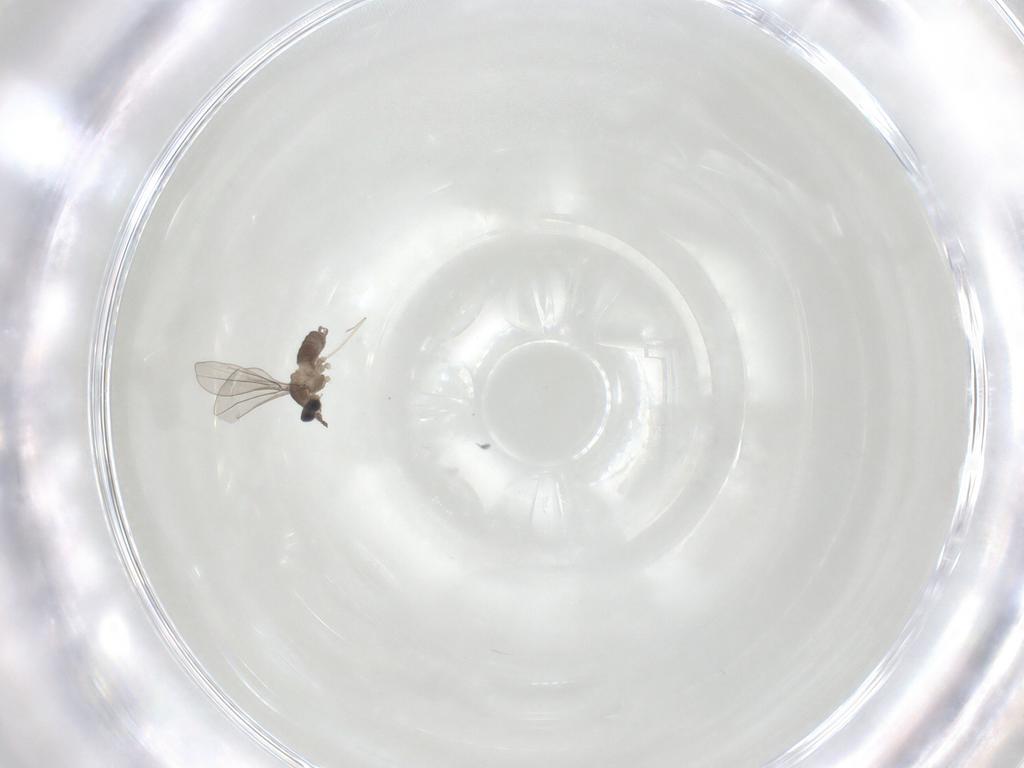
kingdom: Animalia
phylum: Arthropoda
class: Insecta
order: Diptera
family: Cecidomyiidae
